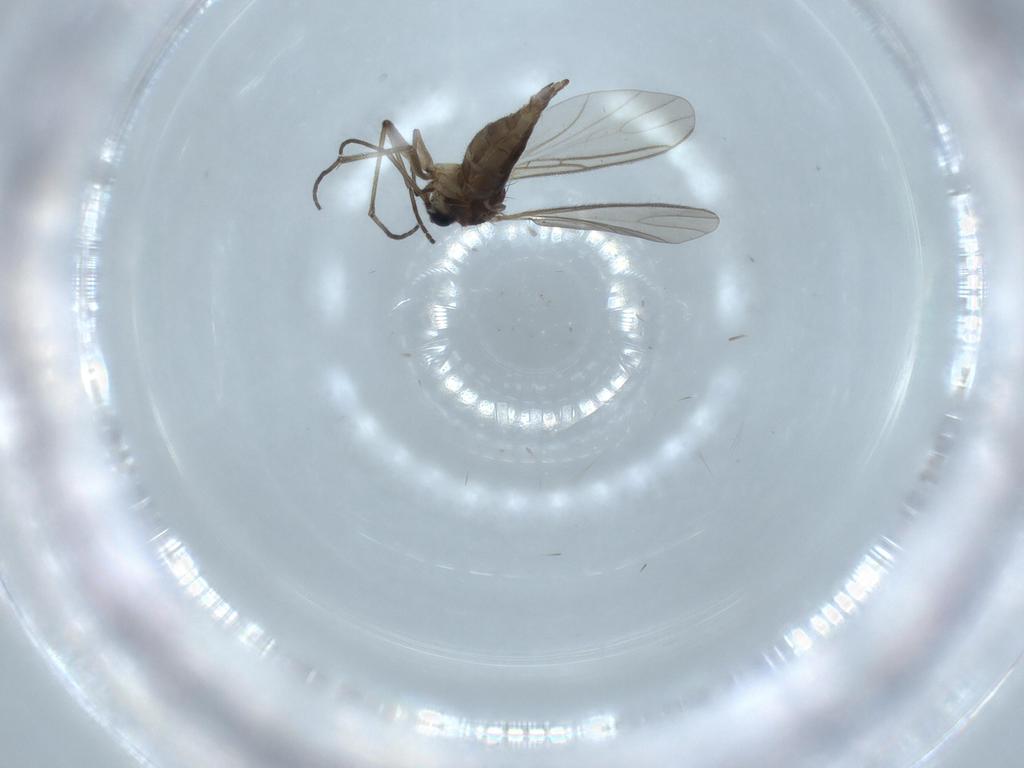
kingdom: Animalia
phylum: Arthropoda
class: Insecta
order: Diptera
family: Sciaridae
